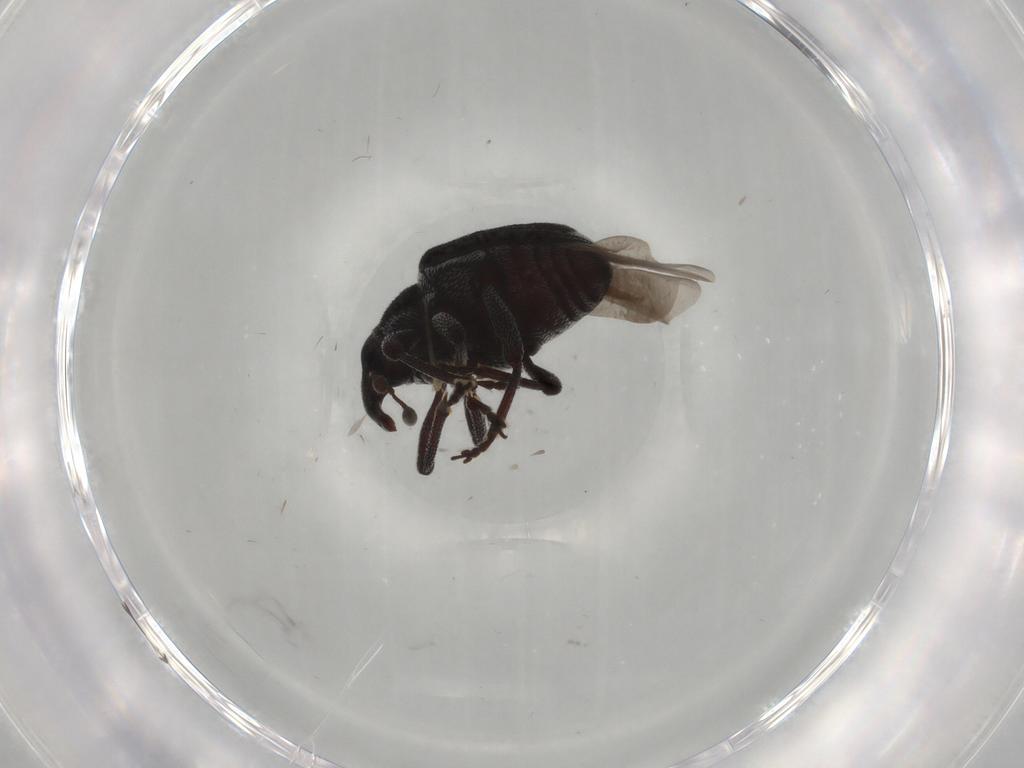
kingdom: Animalia
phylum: Arthropoda
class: Insecta
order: Coleoptera
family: Curculionidae
